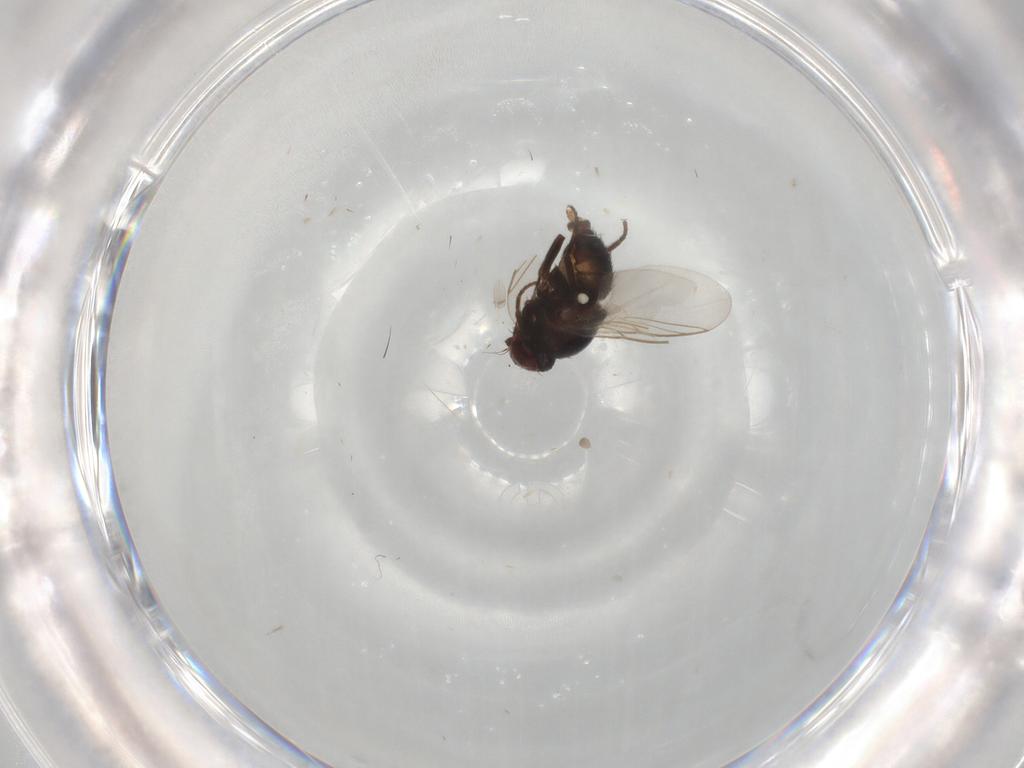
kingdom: Animalia
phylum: Arthropoda
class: Insecta
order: Diptera
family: Agromyzidae
